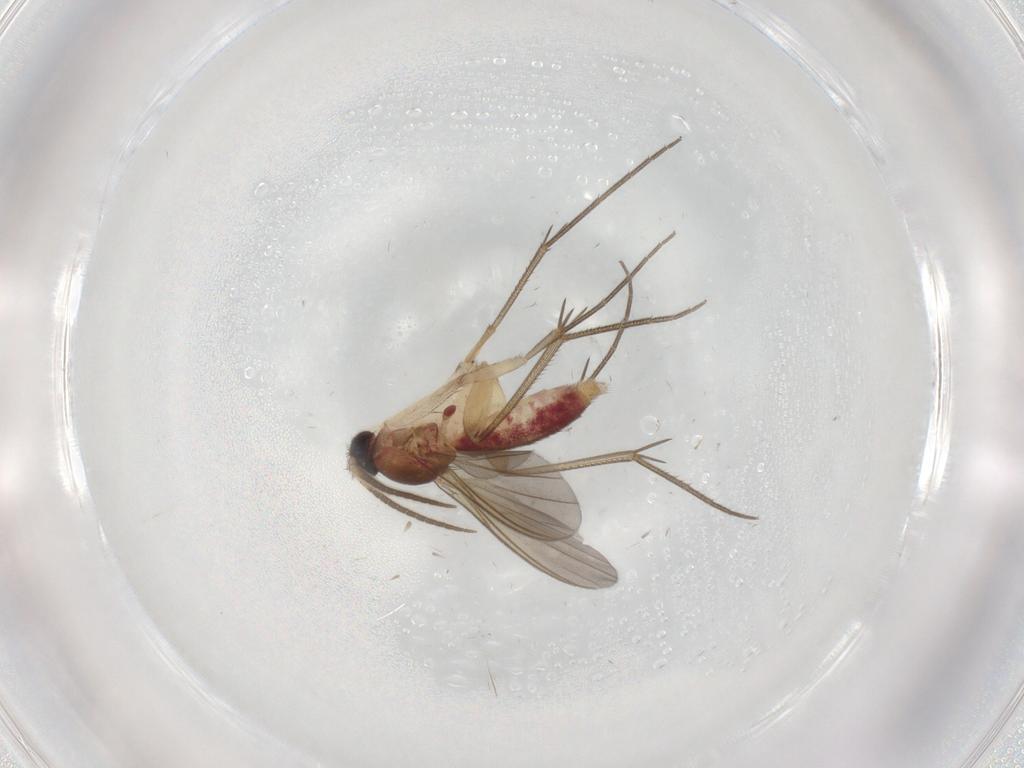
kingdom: Animalia
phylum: Arthropoda
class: Insecta
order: Diptera
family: Mycetophilidae
